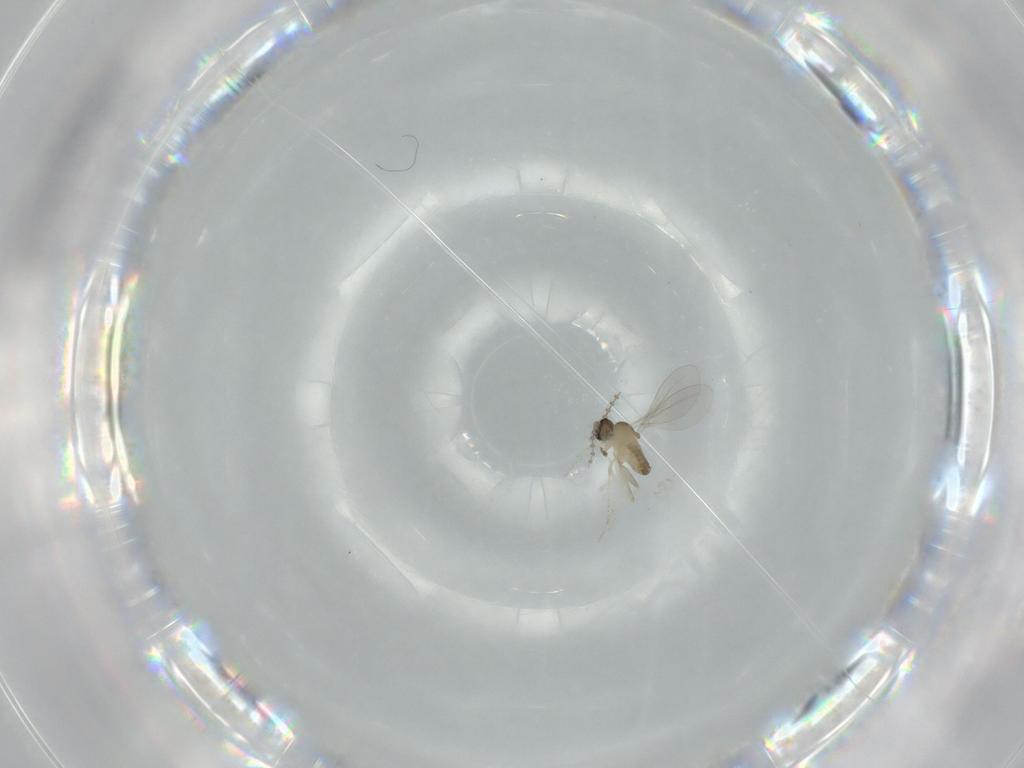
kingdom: Animalia
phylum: Arthropoda
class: Insecta
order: Diptera
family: Cecidomyiidae
